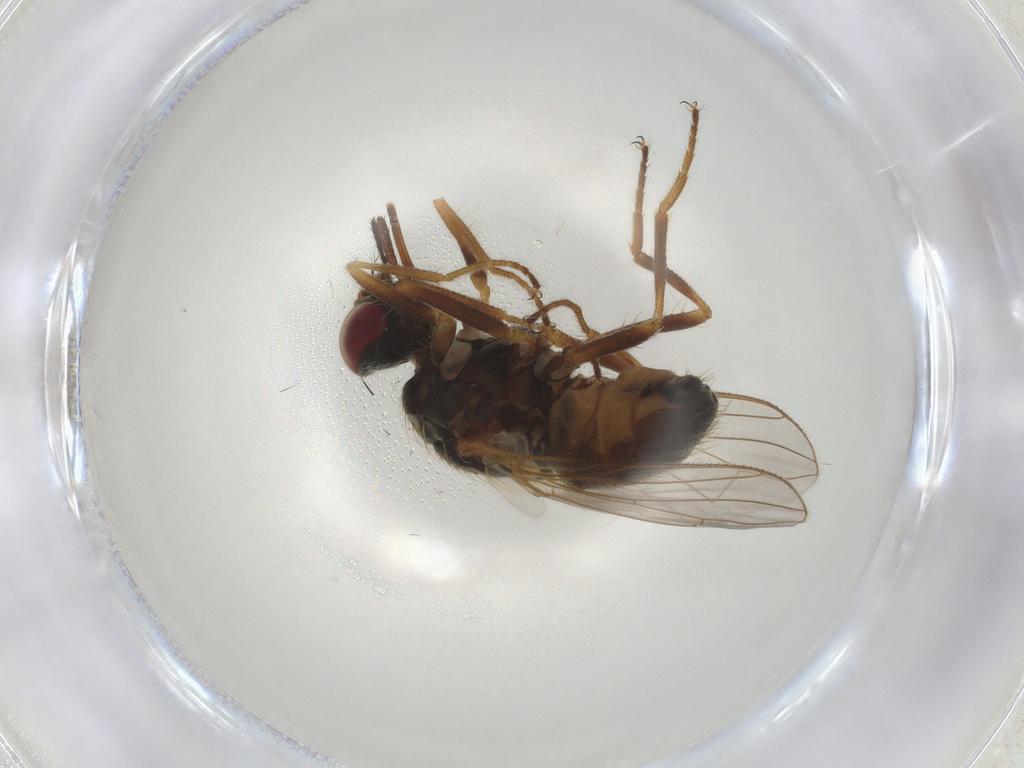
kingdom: Animalia
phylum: Arthropoda
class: Insecta
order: Diptera
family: Muscidae
